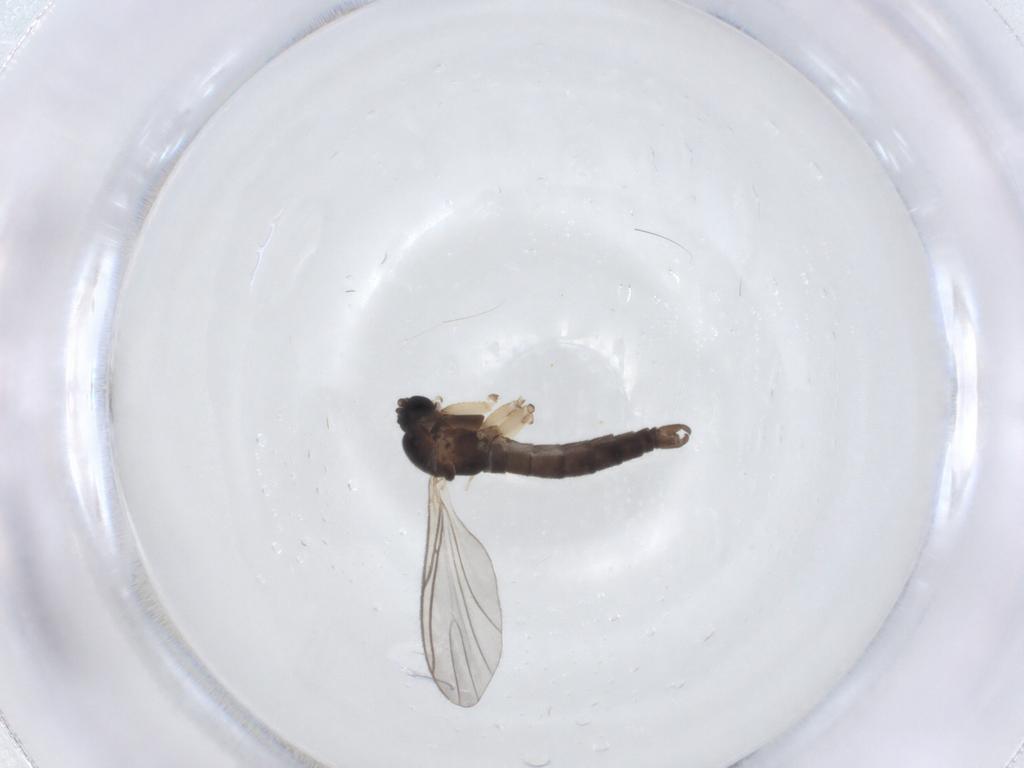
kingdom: Animalia
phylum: Arthropoda
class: Insecta
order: Diptera
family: Sciaridae
